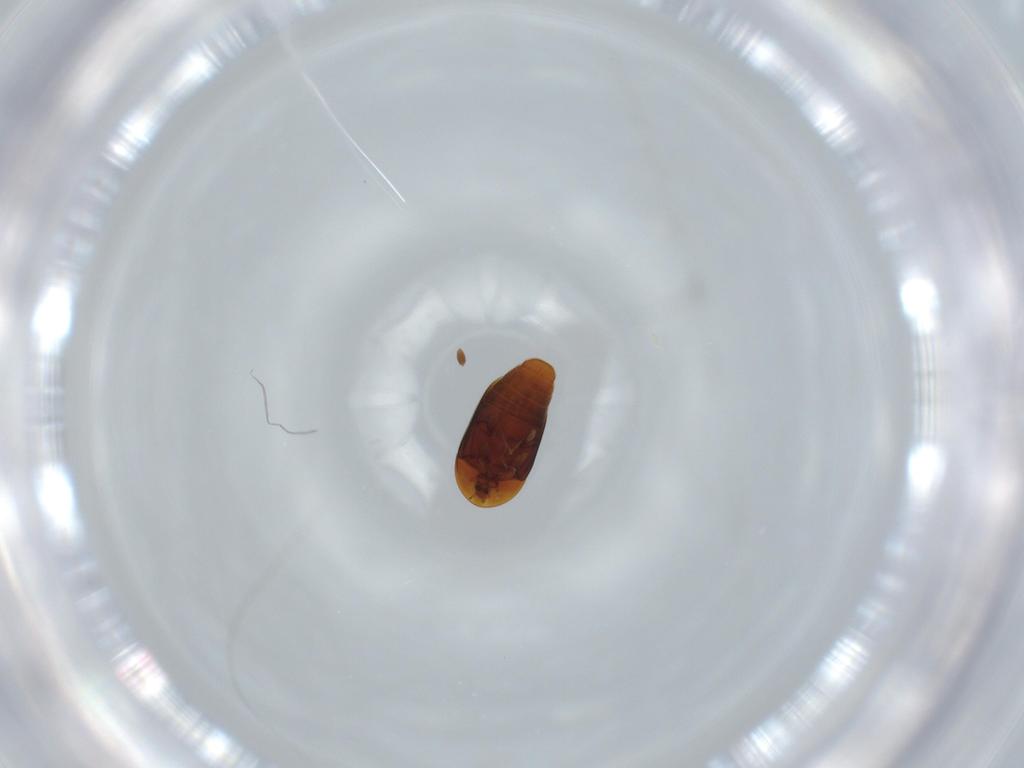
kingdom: Animalia
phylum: Arthropoda
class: Insecta
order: Coleoptera
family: Corylophidae
